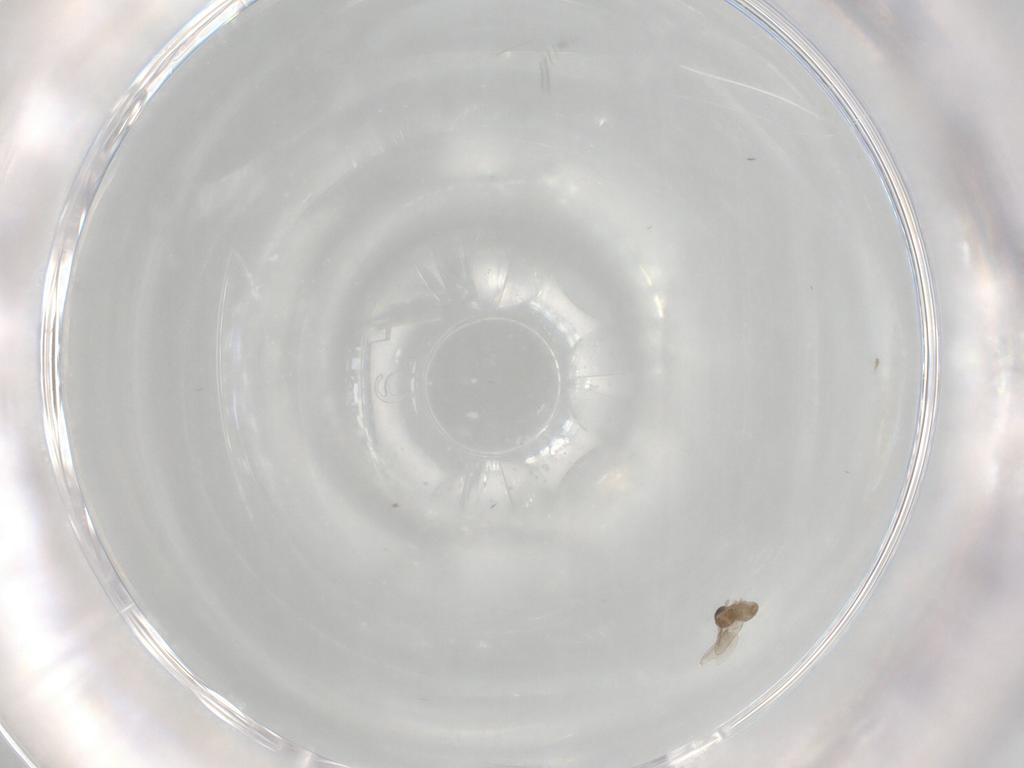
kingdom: Animalia
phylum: Arthropoda
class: Insecta
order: Diptera
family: Cecidomyiidae
